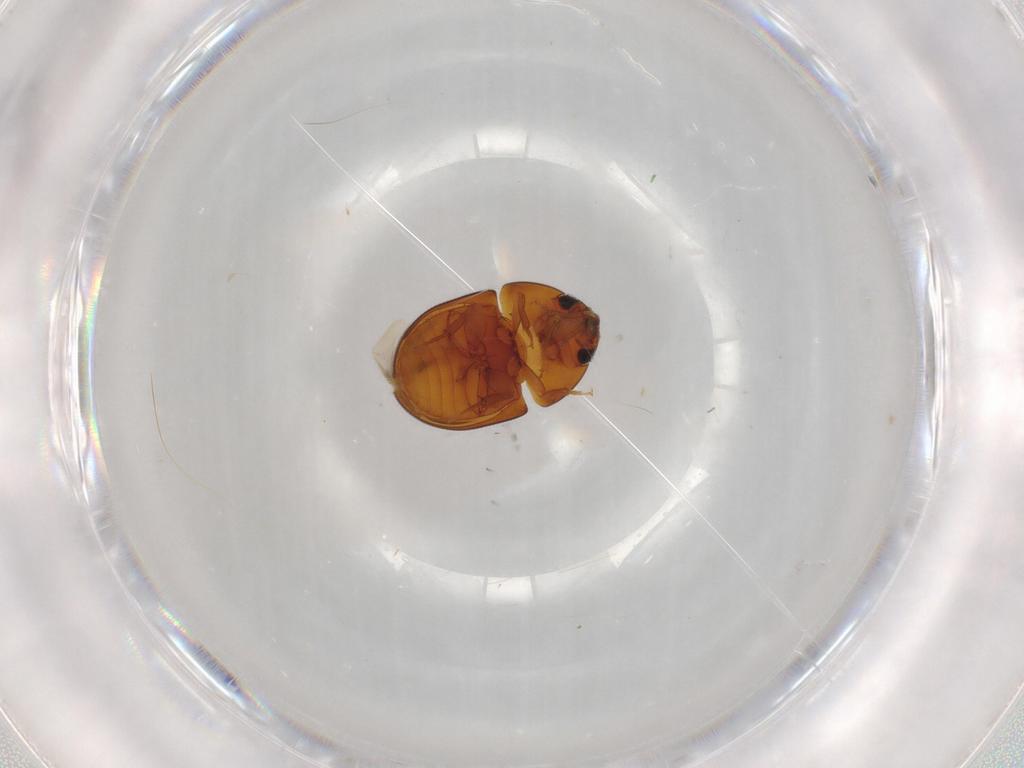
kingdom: Animalia
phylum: Arthropoda
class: Insecta
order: Coleoptera
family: Phalacridae
